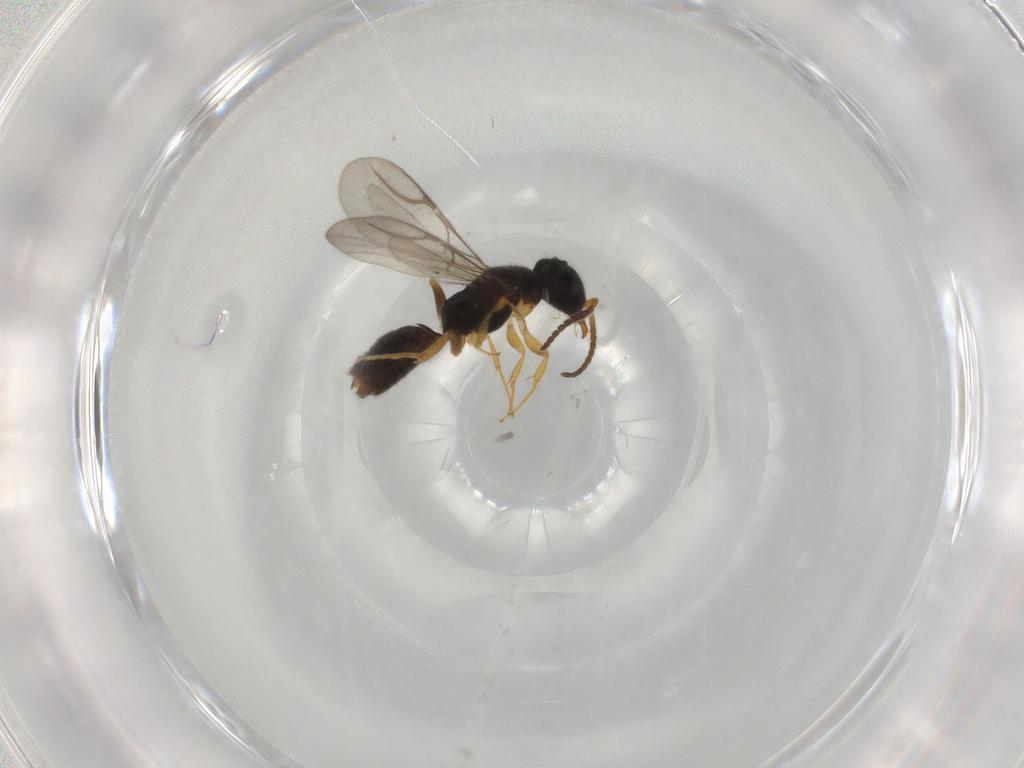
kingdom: Animalia
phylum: Arthropoda
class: Insecta
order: Hymenoptera
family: Bethylidae
